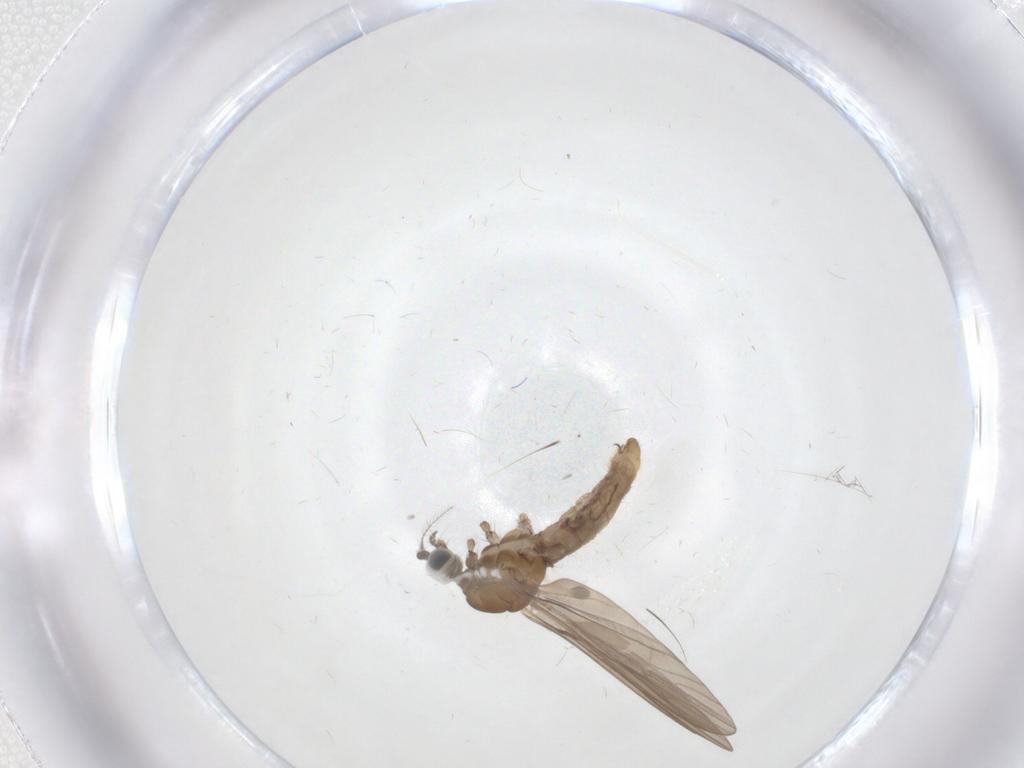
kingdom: Animalia
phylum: Arthropoda
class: Insecta
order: Diptera
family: Limoniidae
